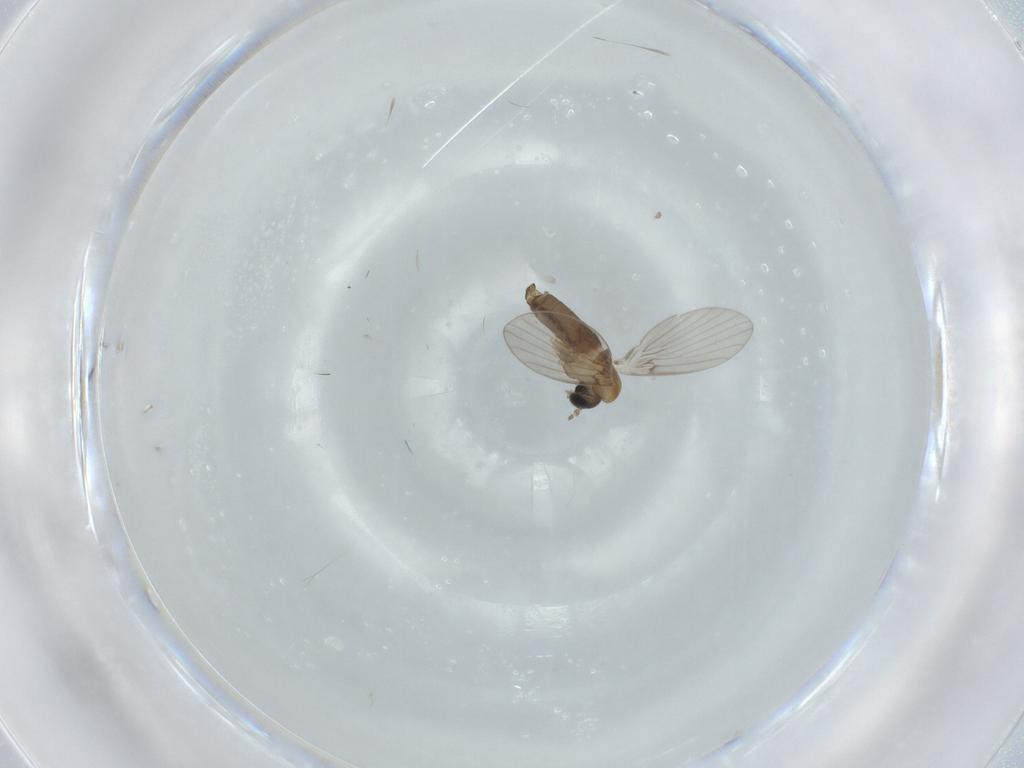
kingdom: Animalia
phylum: Arthropoda
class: Insecta
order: Diptera
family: Psychodidae
